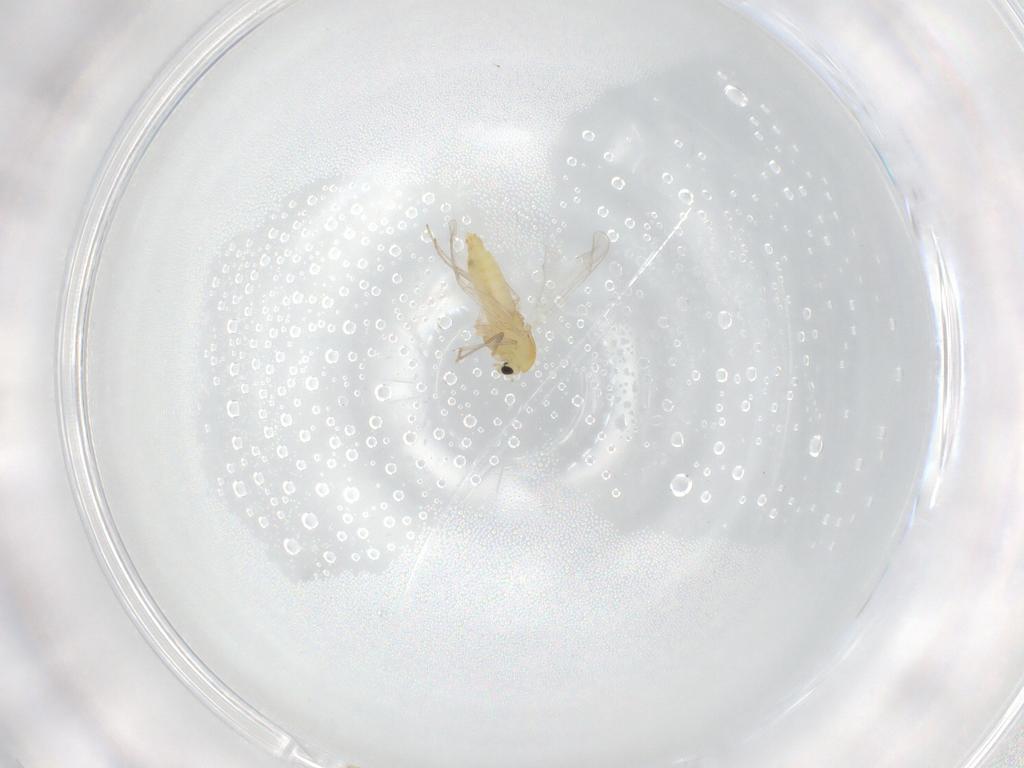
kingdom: Animalia
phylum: Arthropoda
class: Insecta
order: Diptera
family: Chironomidae
